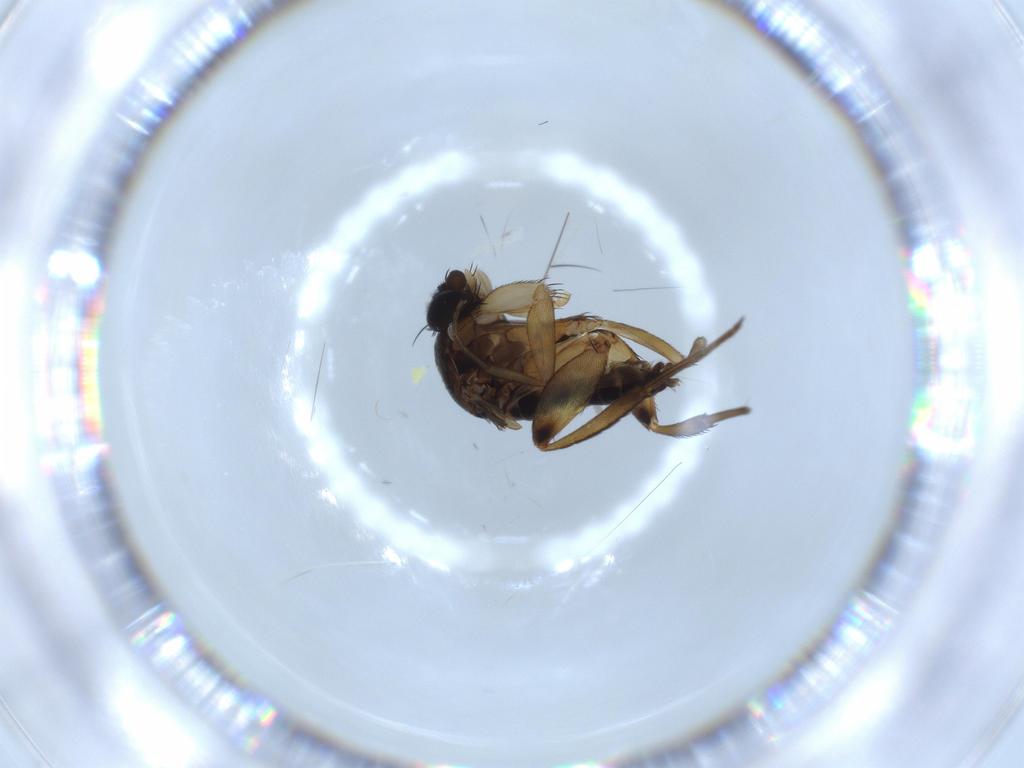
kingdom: Animalia
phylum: Arthropoda
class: Insecta
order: Diptera
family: Phoridae
